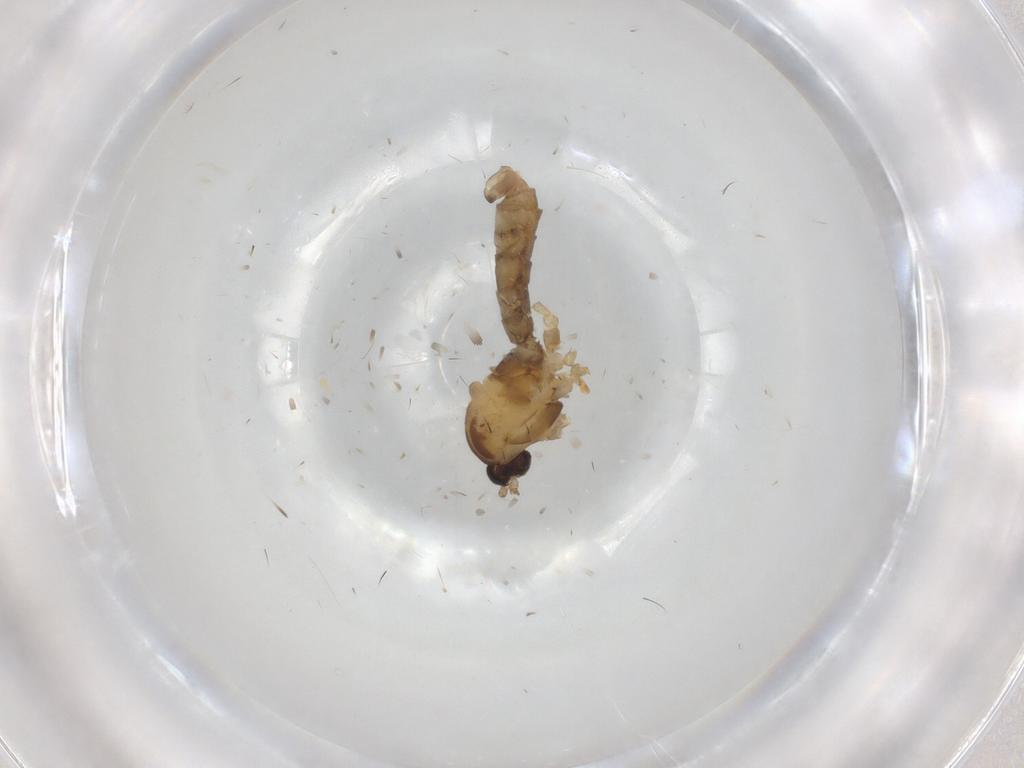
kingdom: Animalia
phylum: Arthropoda
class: Insecta
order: Diptera
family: Cecidomyiidae
